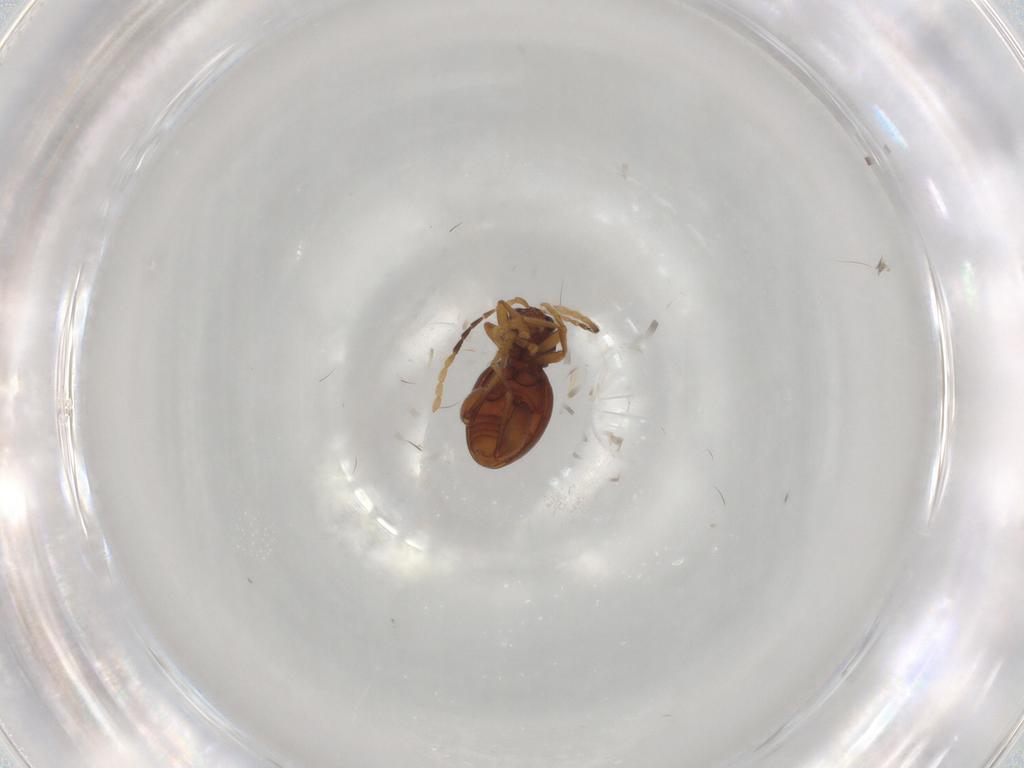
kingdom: Animalia
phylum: Arthropoda
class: Insecta
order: Coleoptera
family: Chrysomelidae
